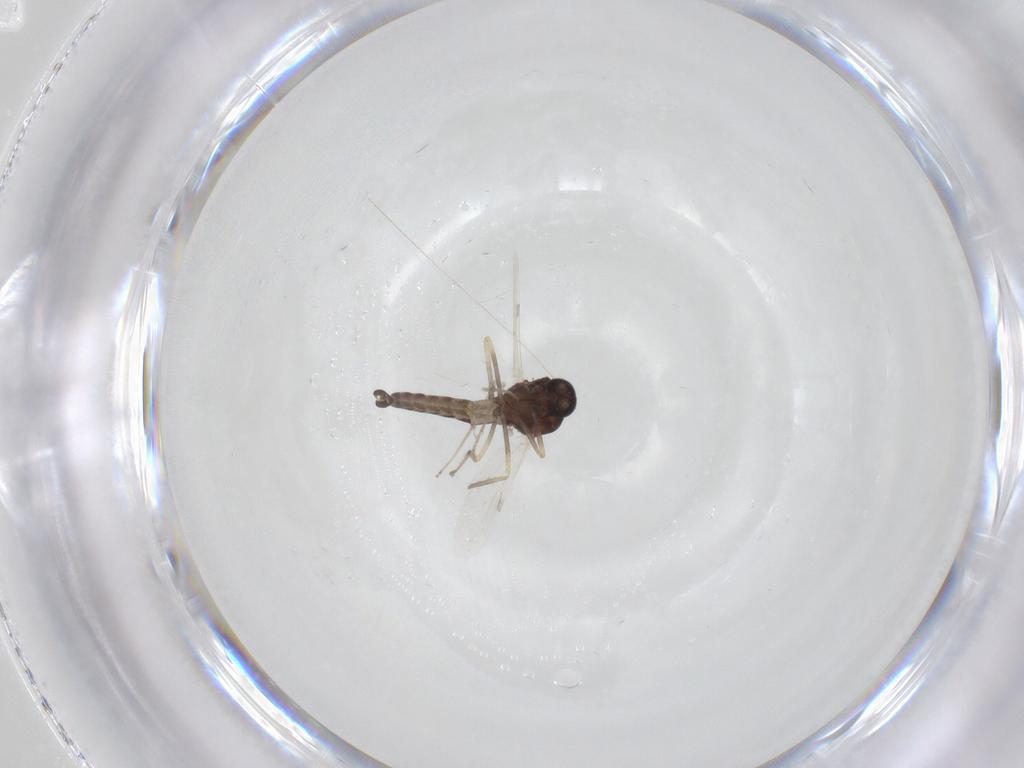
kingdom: Animalia
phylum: Arthropoda
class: Insecta
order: Diptera
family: Ceratopogonidae
